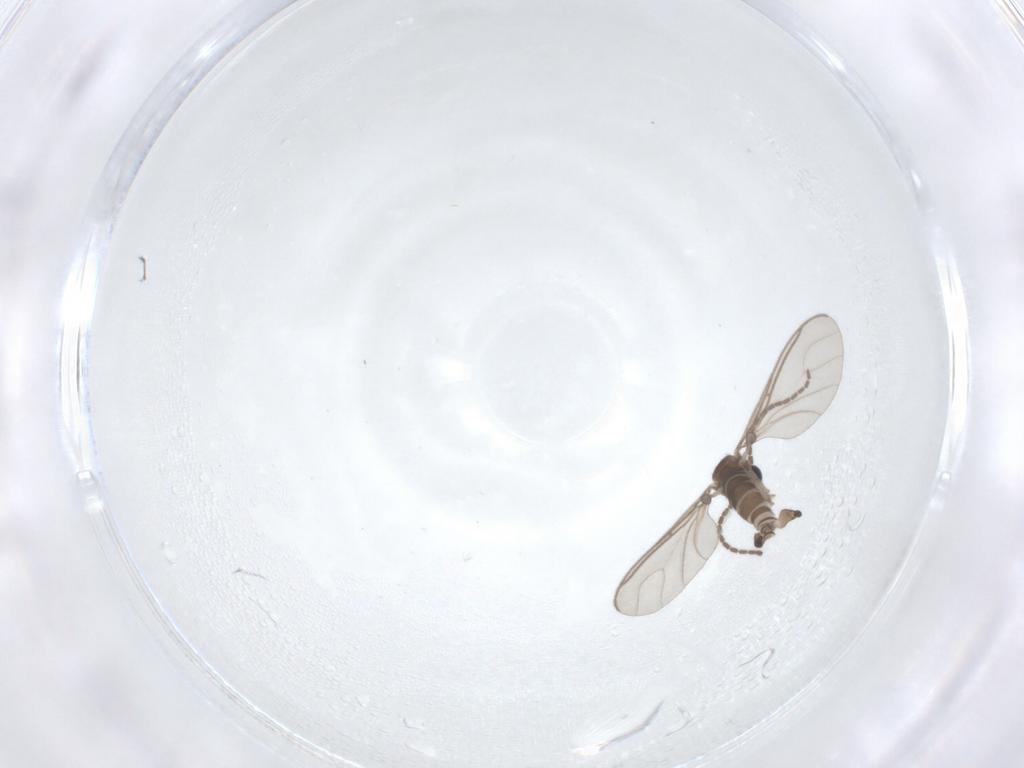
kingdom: Animalia
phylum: Arthropoda
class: Insecta
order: Diptera
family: Sciaridae
